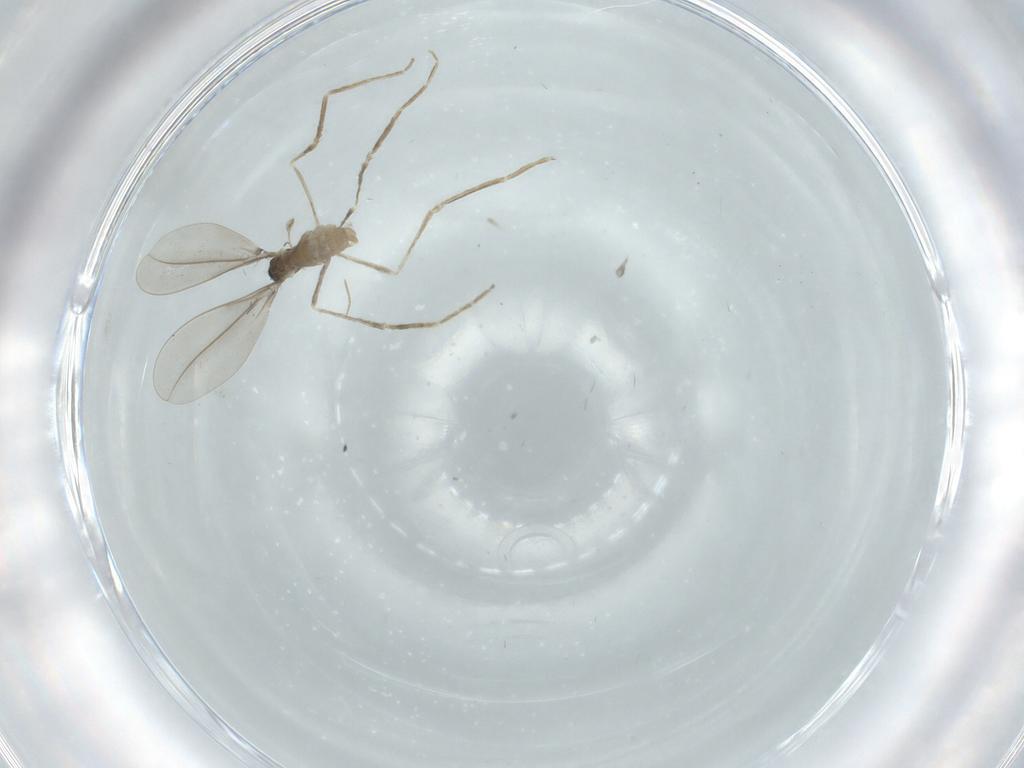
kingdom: Animalia
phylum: Arthropoda
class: Insecta
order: Diptera
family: Cecidomyiidae
